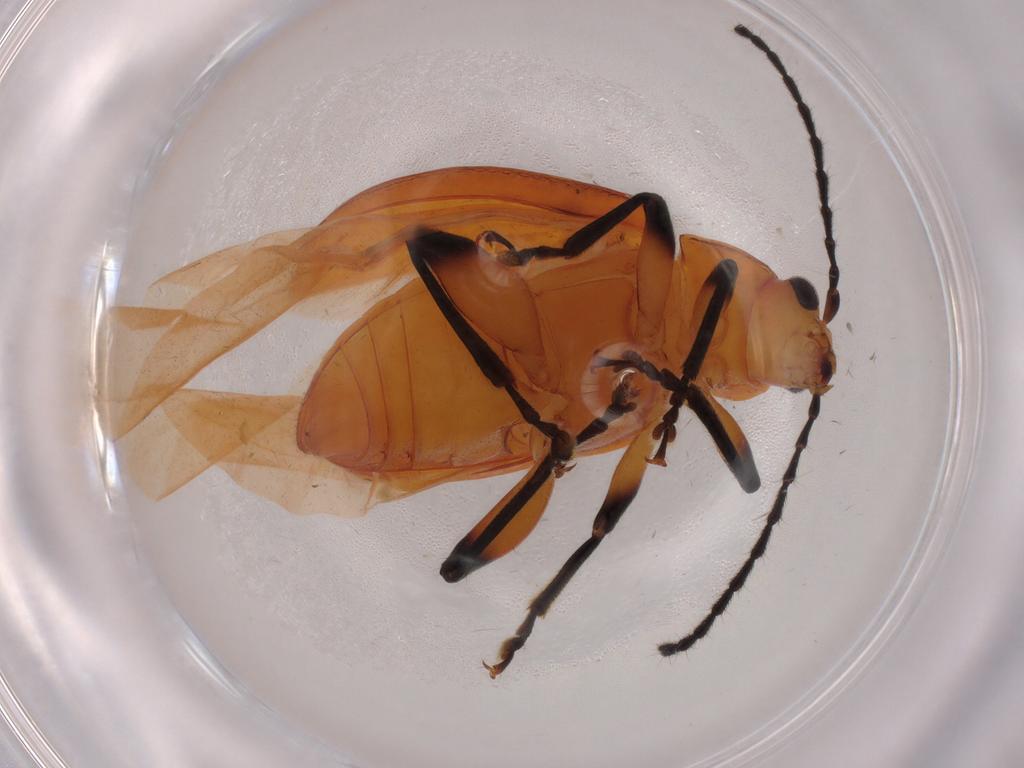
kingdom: Animalia
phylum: Arthropoda
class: Insecta
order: Coleoptera
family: Chrysomelidae
